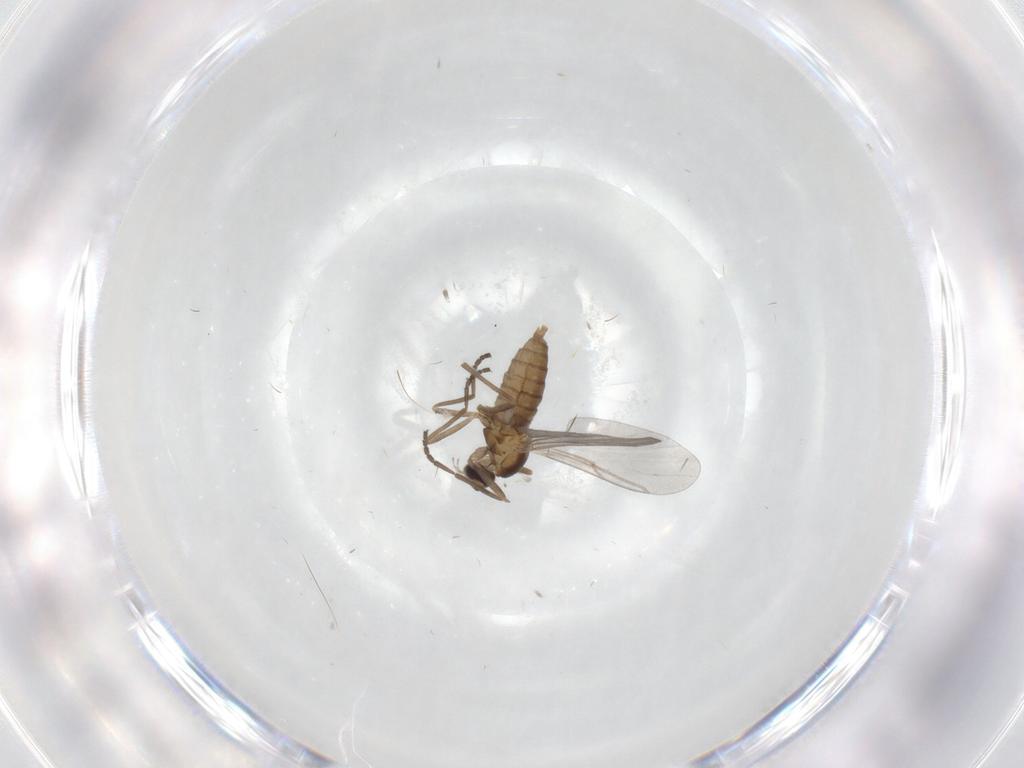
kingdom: Animalia
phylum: Arthropoda
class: Insecta
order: Diptera
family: Cecidomyiidae
